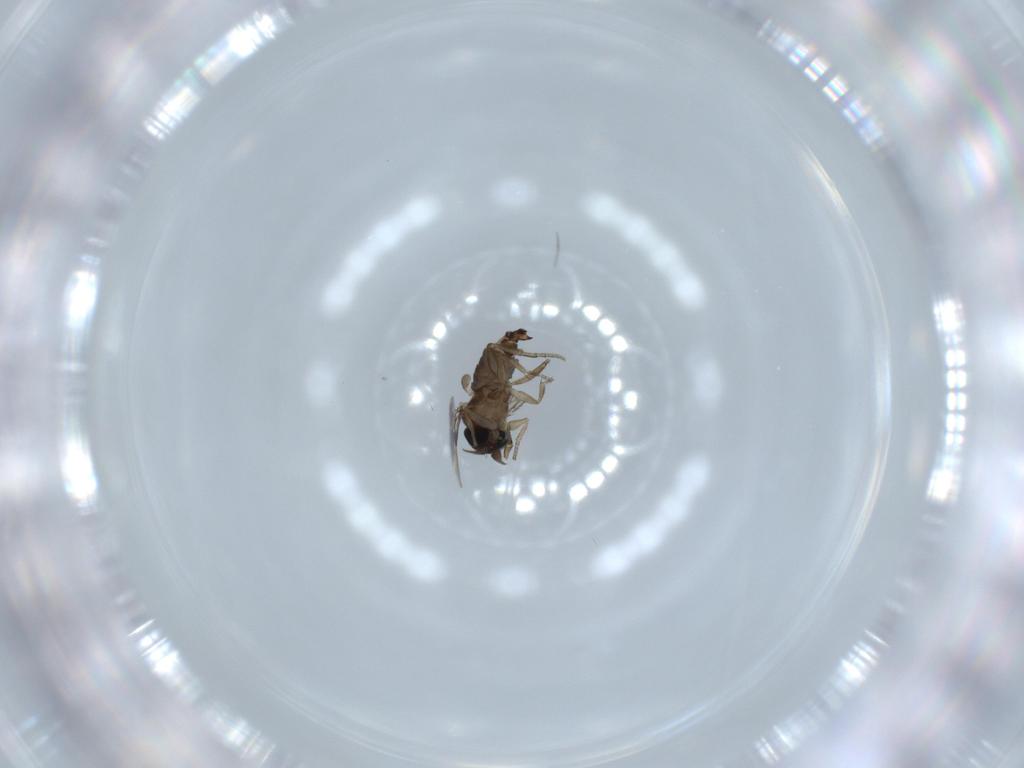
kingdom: Animalia
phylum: Arthropoda
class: Insecta
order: Diptera
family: Phoridae
